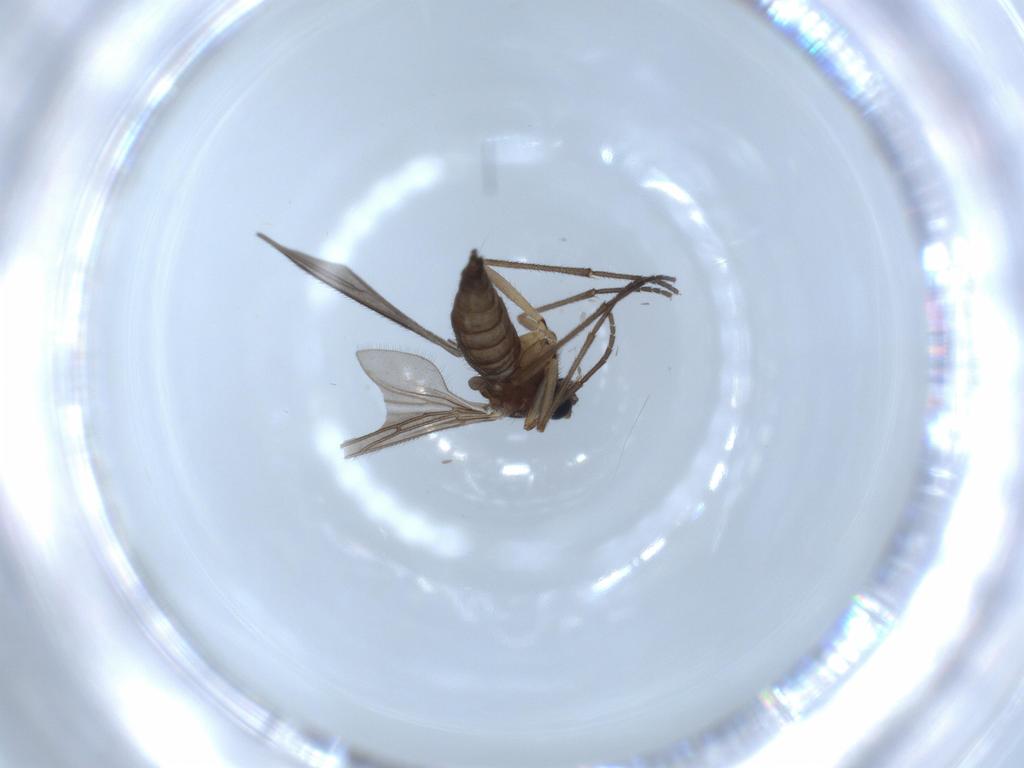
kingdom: Animalia
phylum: Arthropoda
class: Insecta
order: Diptera
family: Sciaridae
